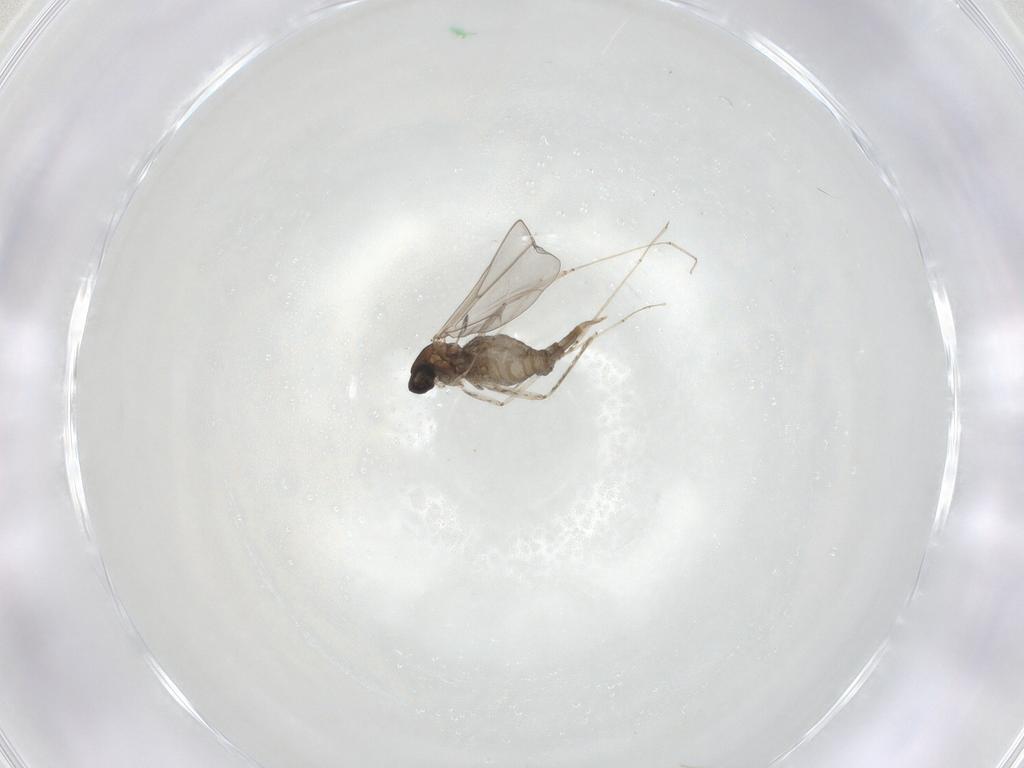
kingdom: Animalia
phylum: Arthropoda
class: Insecta
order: Diptera
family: Cecidomyiidae
